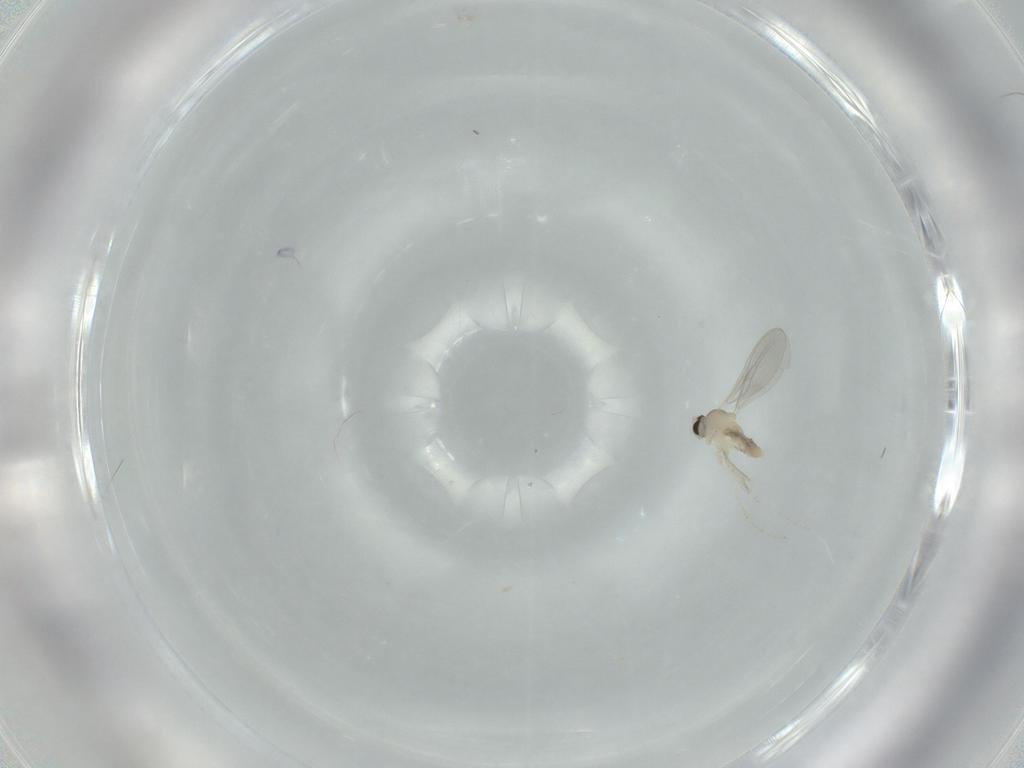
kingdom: Animalia
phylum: Arthropoda
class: Insecta
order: Diptera
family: Cecidomyiidae
